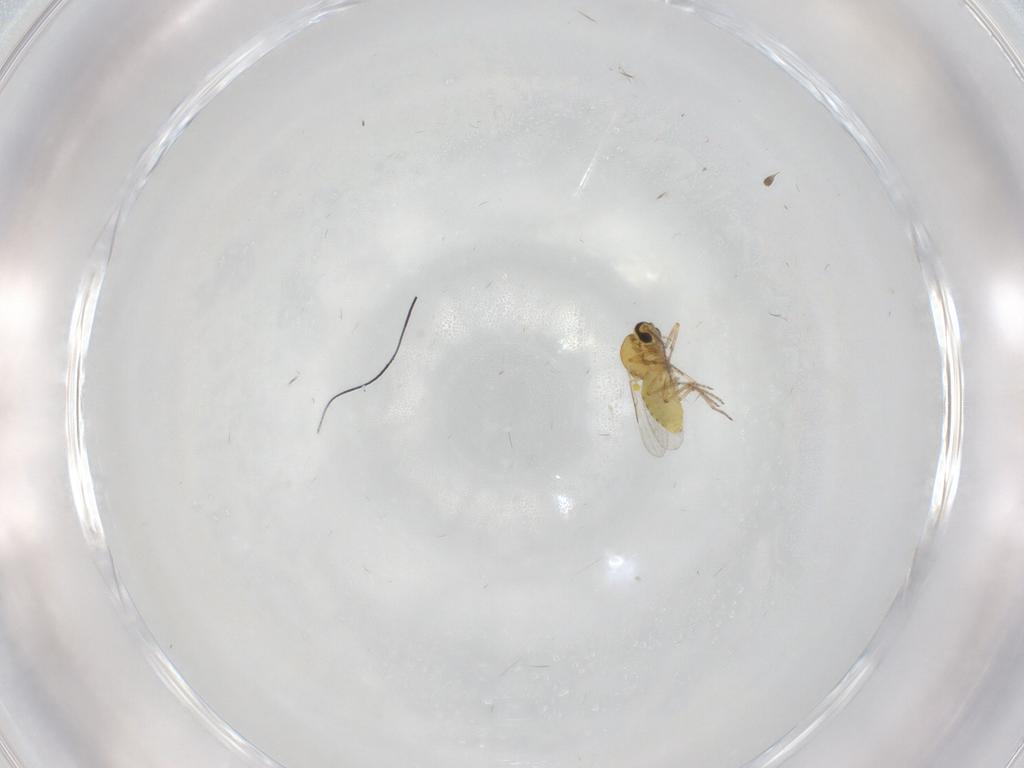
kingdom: Animalia
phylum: Arthropoda
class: Insecta
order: Diptera
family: Ceratopogonidae
